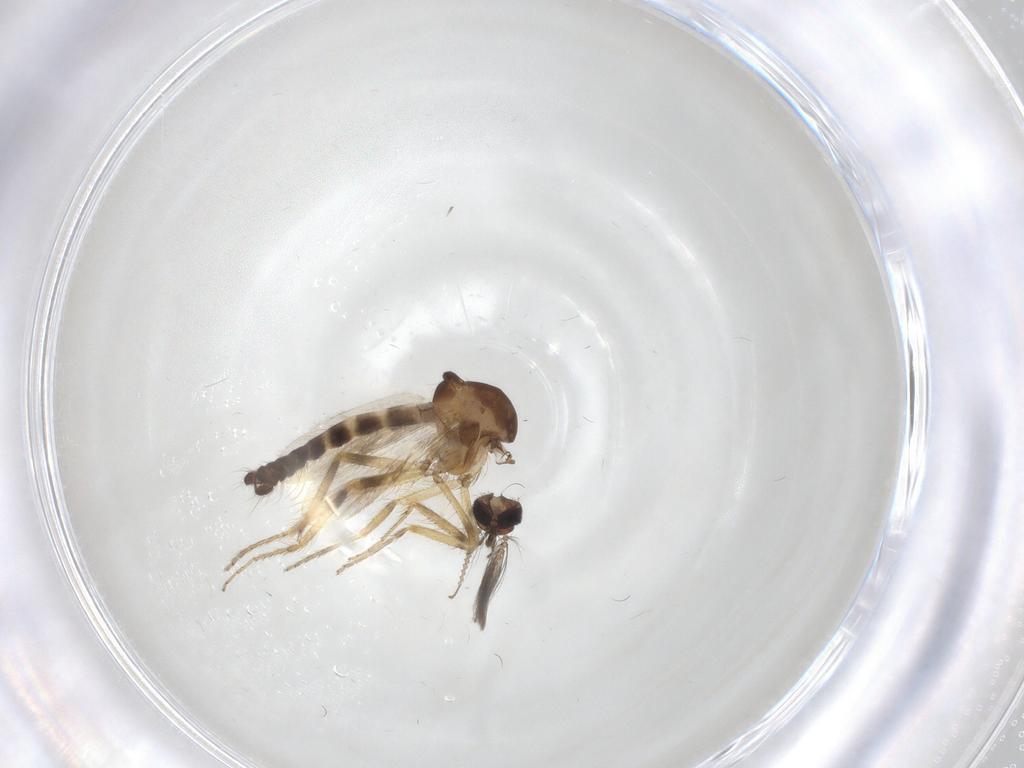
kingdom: Animalia
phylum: Arthropoda
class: Insecta
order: Diptera
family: Ceratopogonidae
